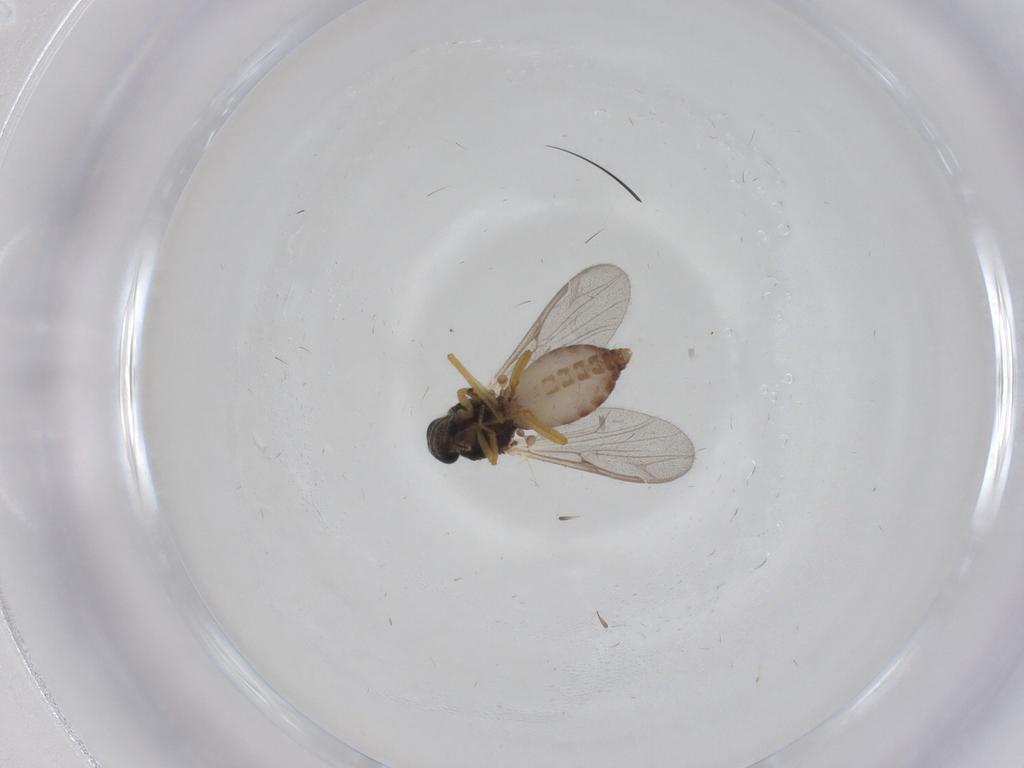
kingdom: Animalia
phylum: Arthropoda
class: Insecta
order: Diptera
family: Ceratopogonidae
